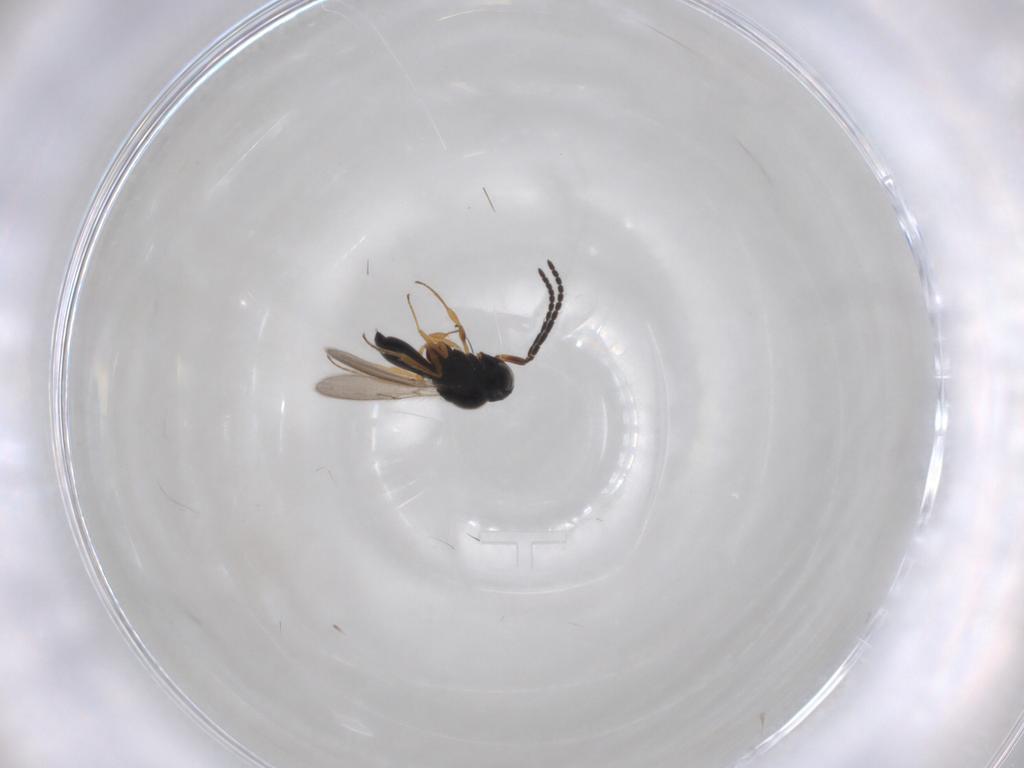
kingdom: Animalia
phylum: Arthropoda
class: Insecta
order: Hymenoptera
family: Scelionidae
